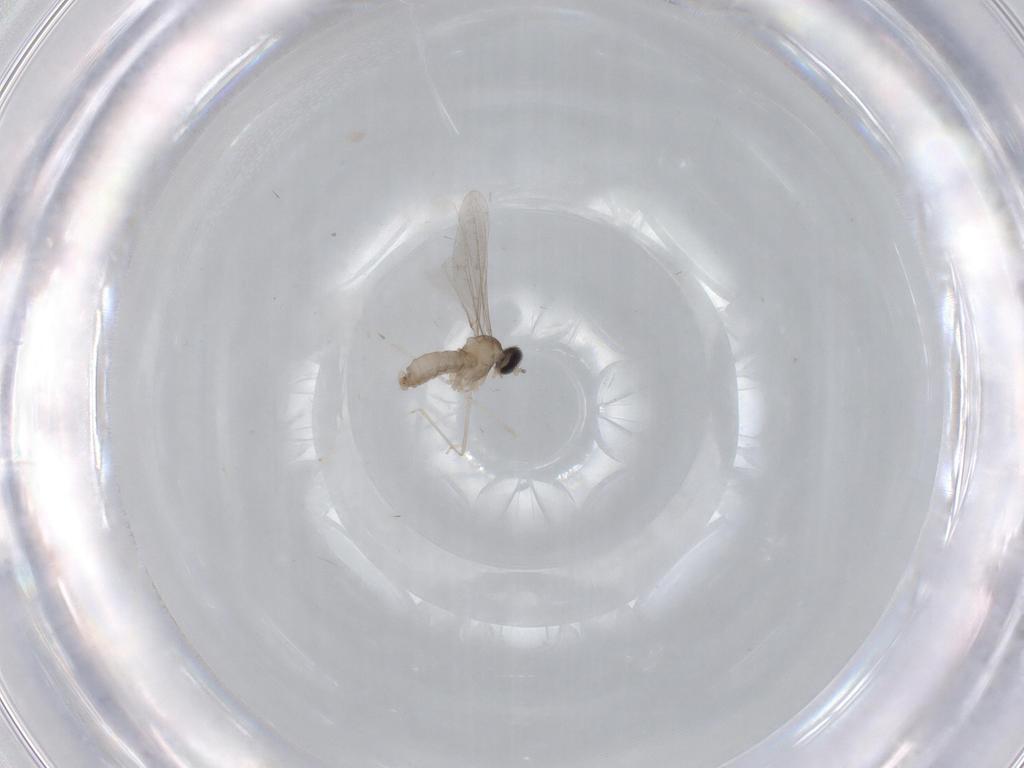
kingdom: Animalia
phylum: Arthropoda
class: Insecta
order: Diptera
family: Cecidomyiidae
